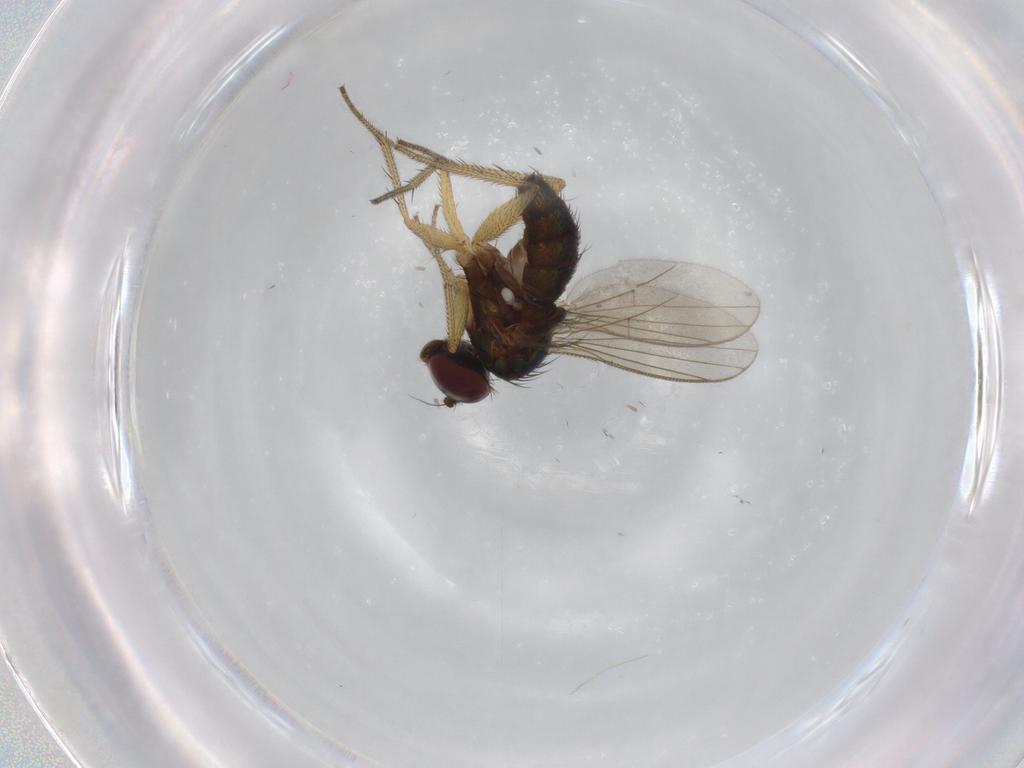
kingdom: Animalia
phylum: Arthropoda
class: Insecta
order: Diptera
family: Dolichopodidae
